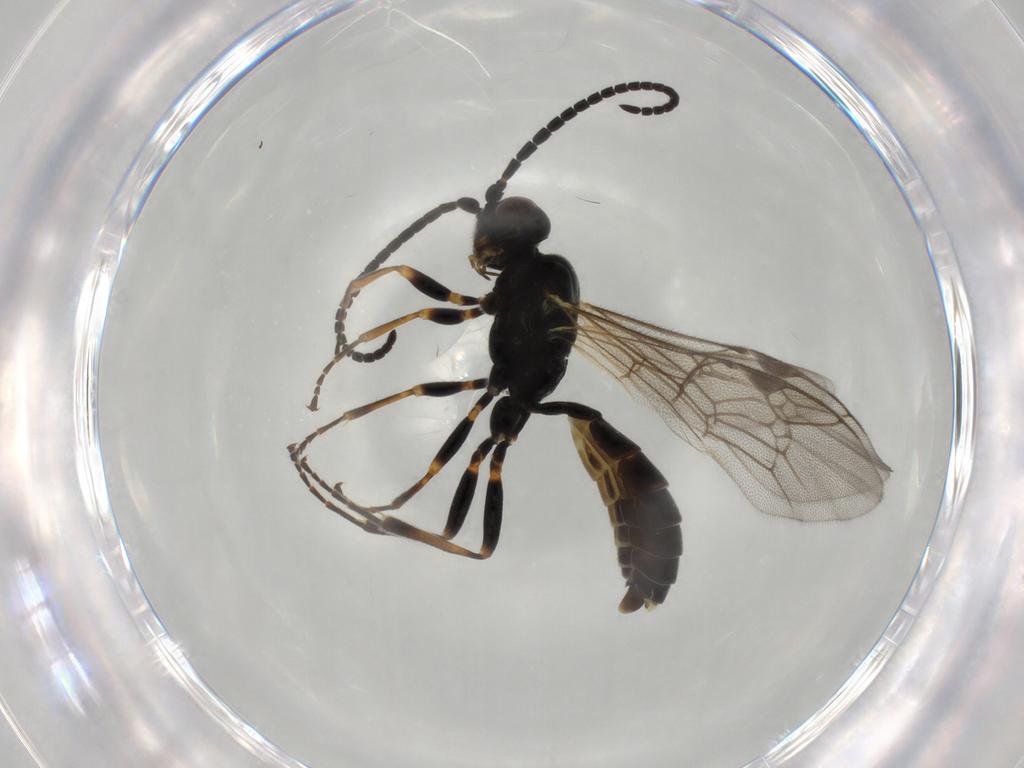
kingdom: Animalia
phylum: Arthropoda
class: Insecta
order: Hymenoptera
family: Ichneumonidae
